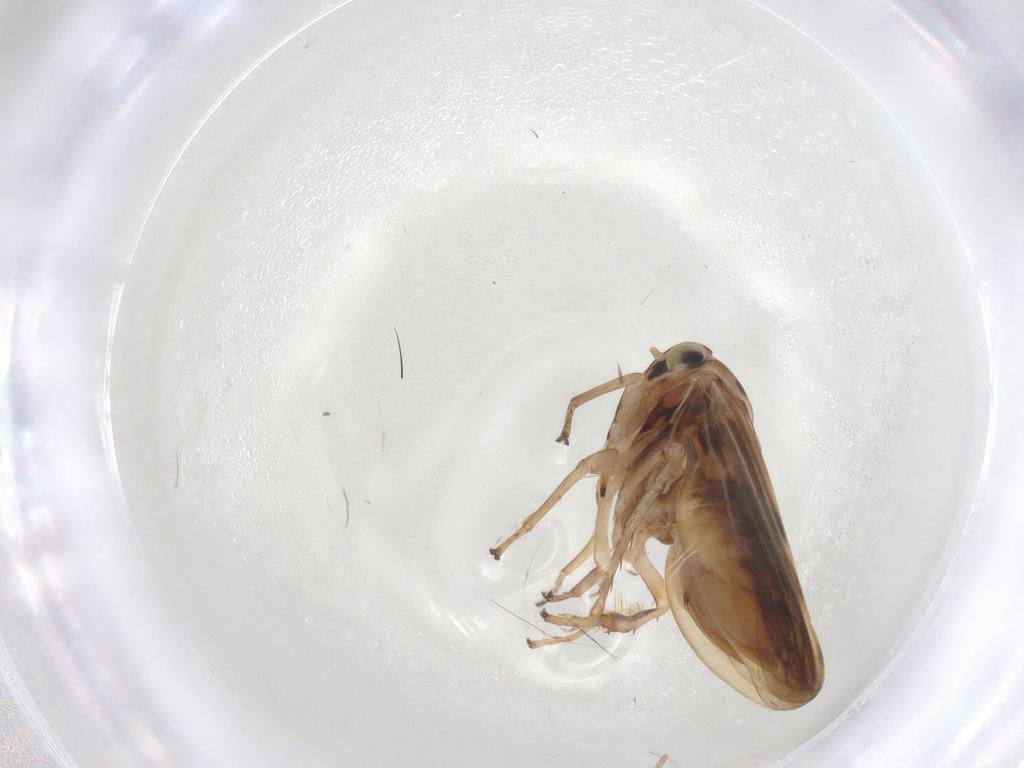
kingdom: Animalia
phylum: Arthropoda
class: Insecta
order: Hemiptera
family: Cicadellidae
